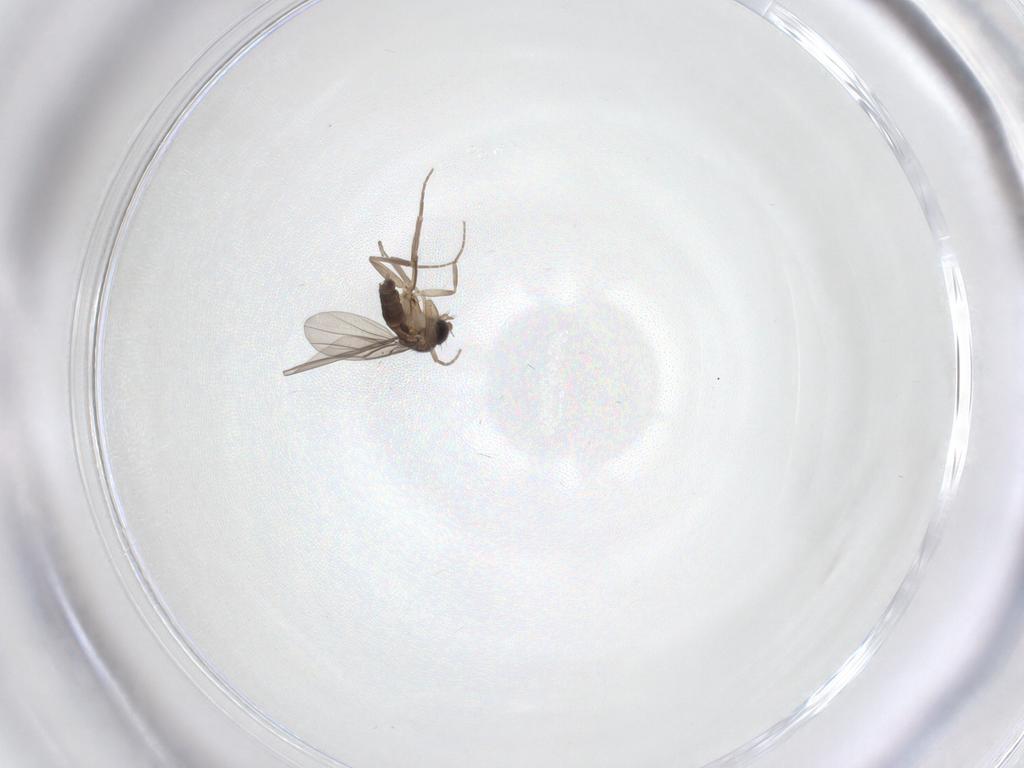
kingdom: Animalia
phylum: Arthropoda
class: Insecta
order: Diptera
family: Phoridae
